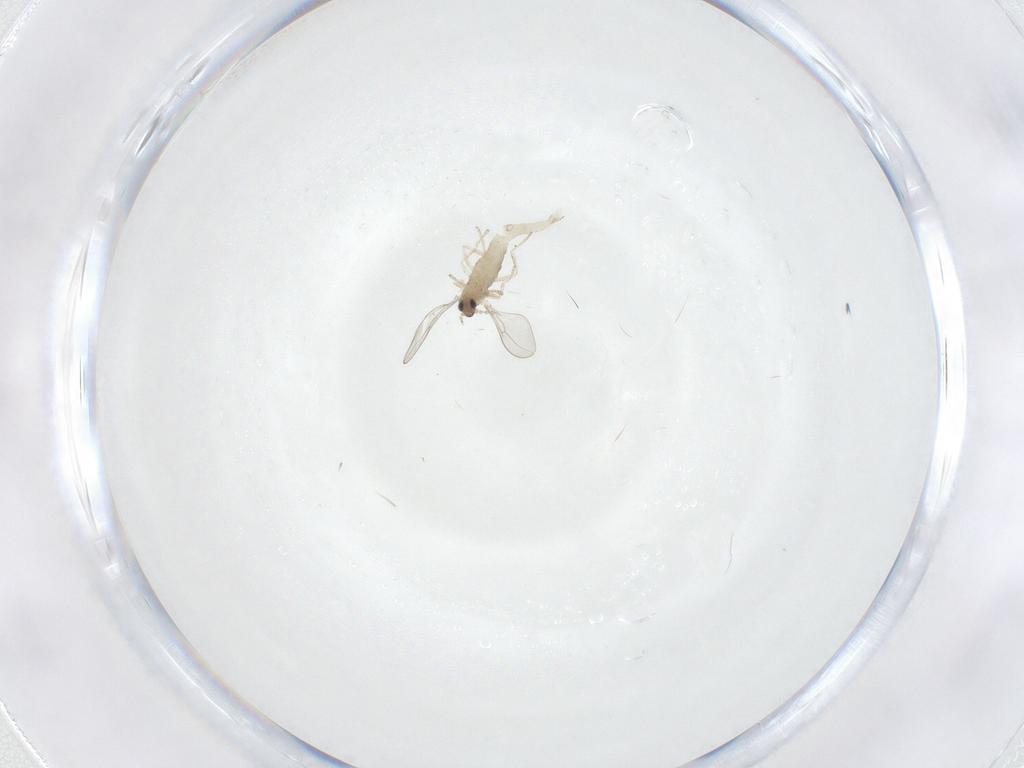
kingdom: Animalia
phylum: Arthropoda
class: Insecta
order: Diptera
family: Cecidomyiidae
